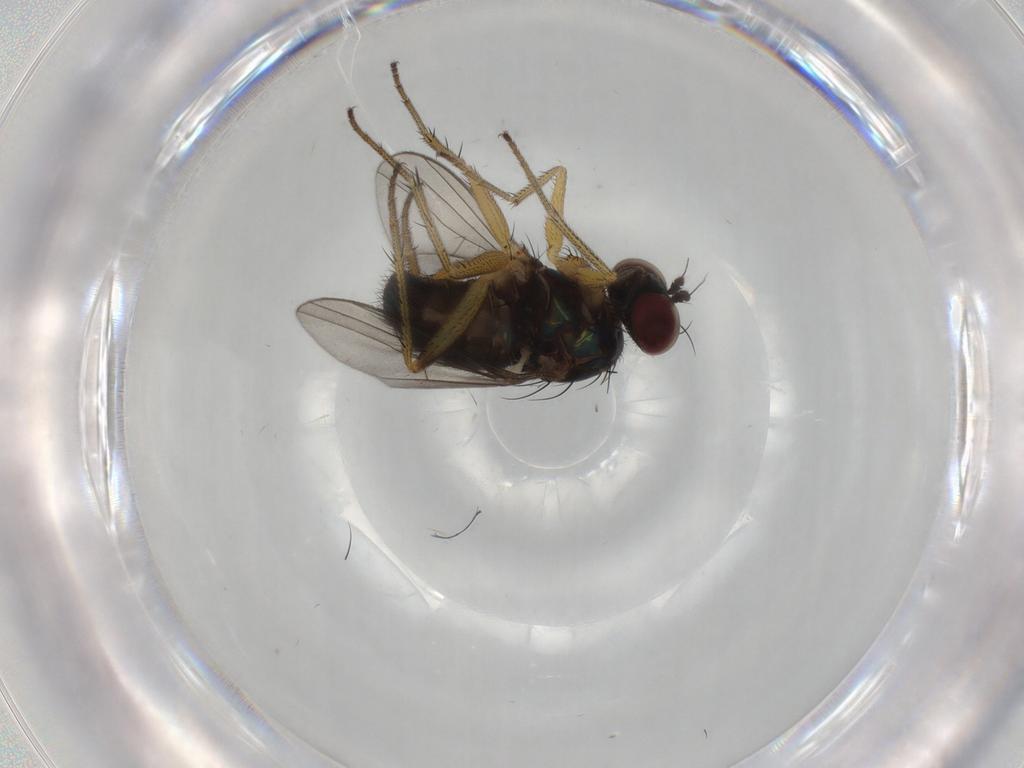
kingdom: Animalia
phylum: Arthropoda
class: Insecta
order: Diptera
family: Dolichopodidae
